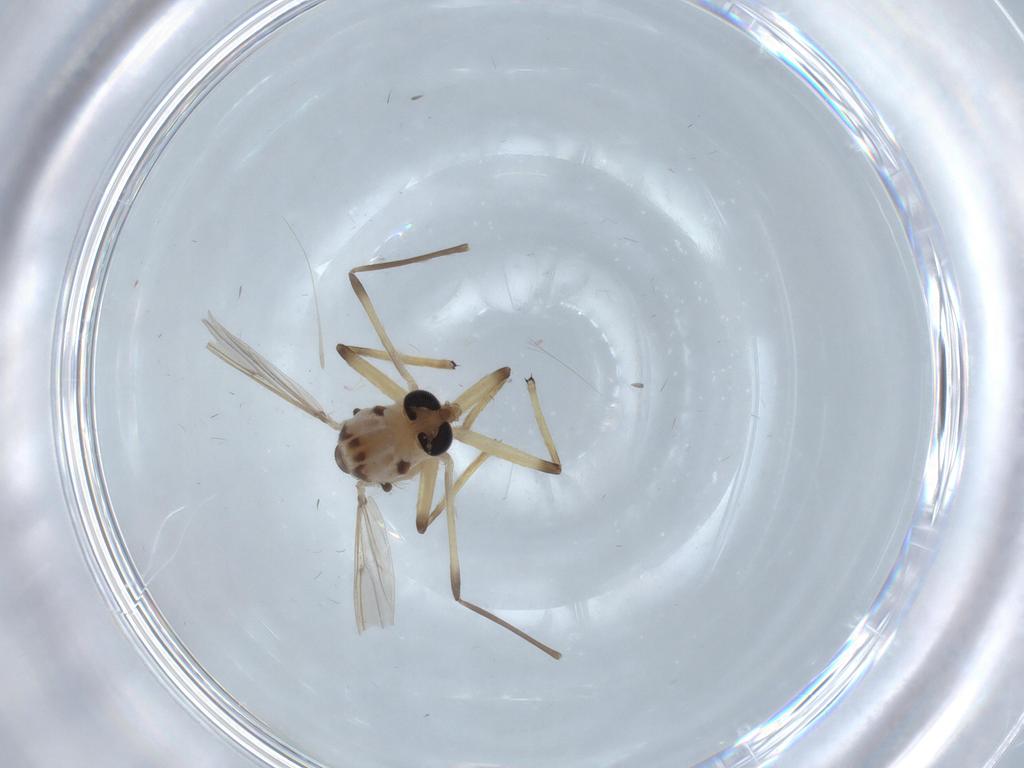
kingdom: Animalia
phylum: Arthropoda
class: Insecta
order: Diptera
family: Chironomidae
